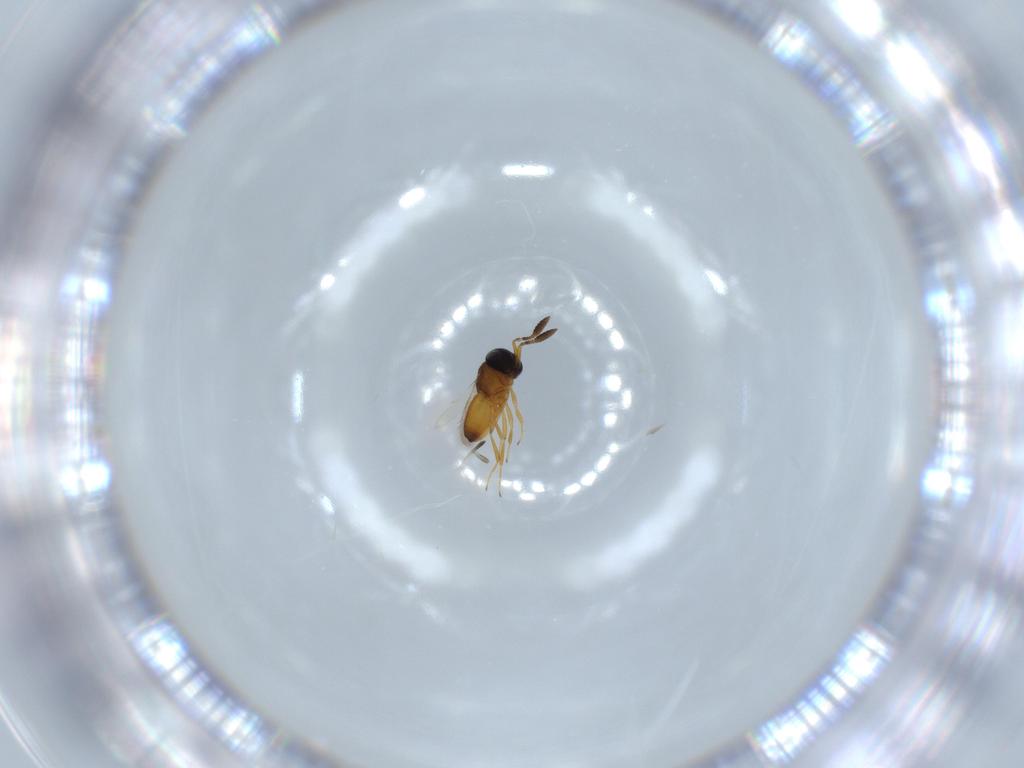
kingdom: Animalia
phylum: Arthropoda
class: Insecta
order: Hymenoptera
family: Scelionidae
